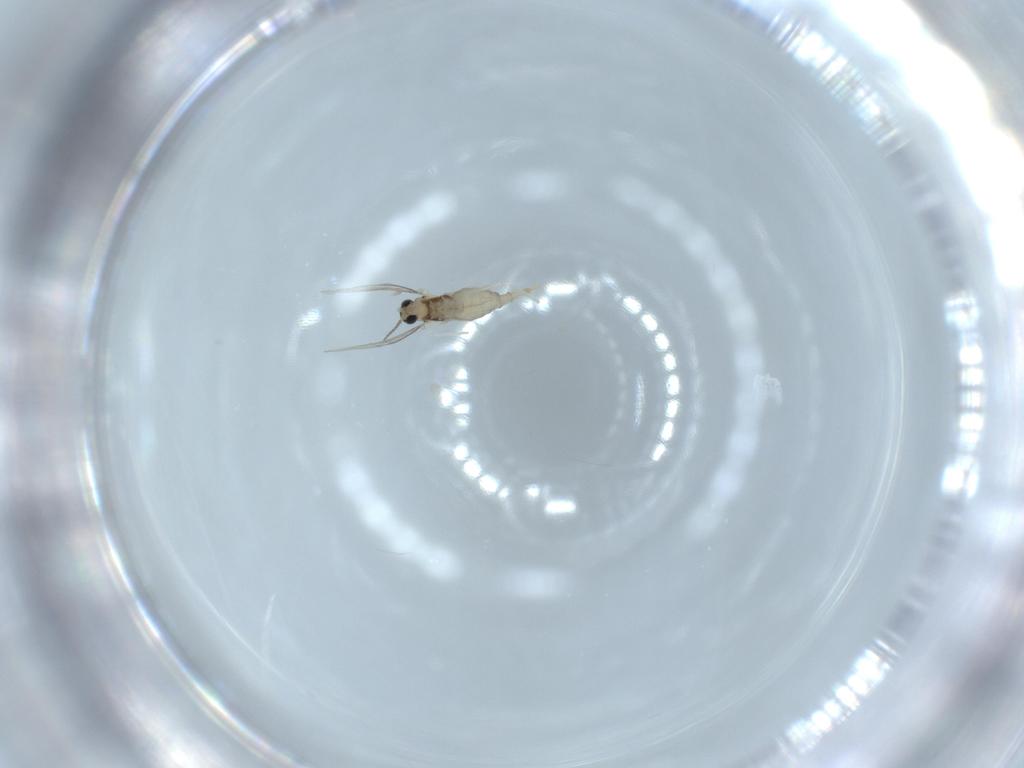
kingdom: Animalia
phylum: Arthropoda
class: Insecta
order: Diptera
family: Cecidomyiidae
